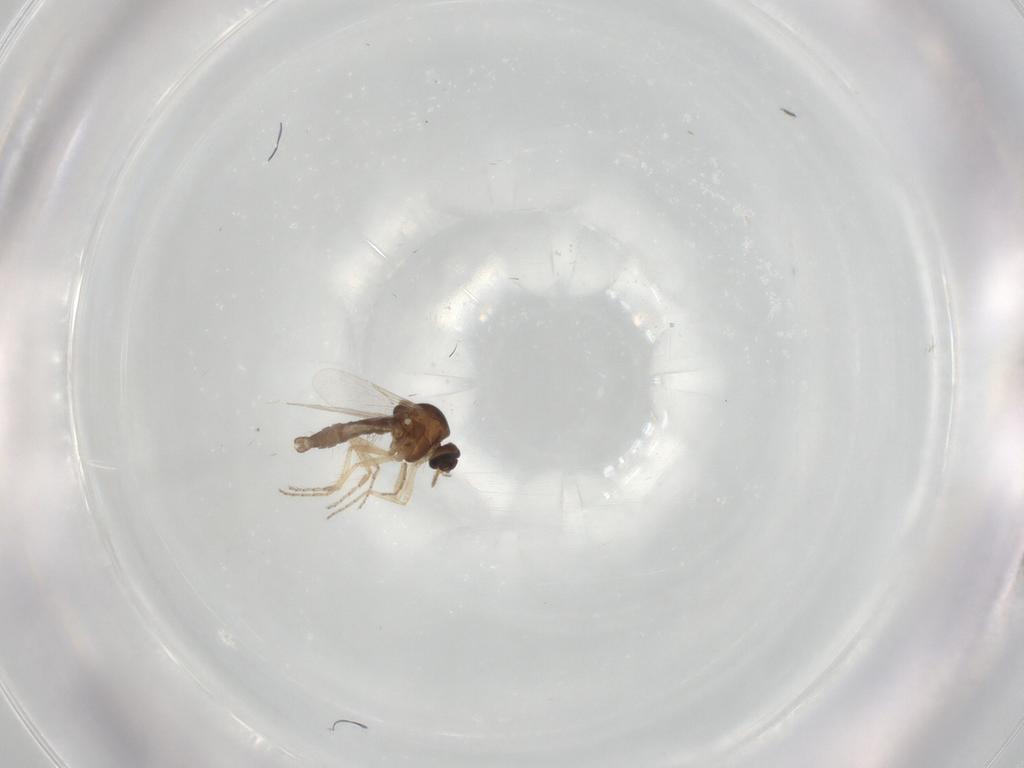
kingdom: Animalia
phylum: Arthropoda
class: Insecta
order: Diptera
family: Ceratopogonidae
